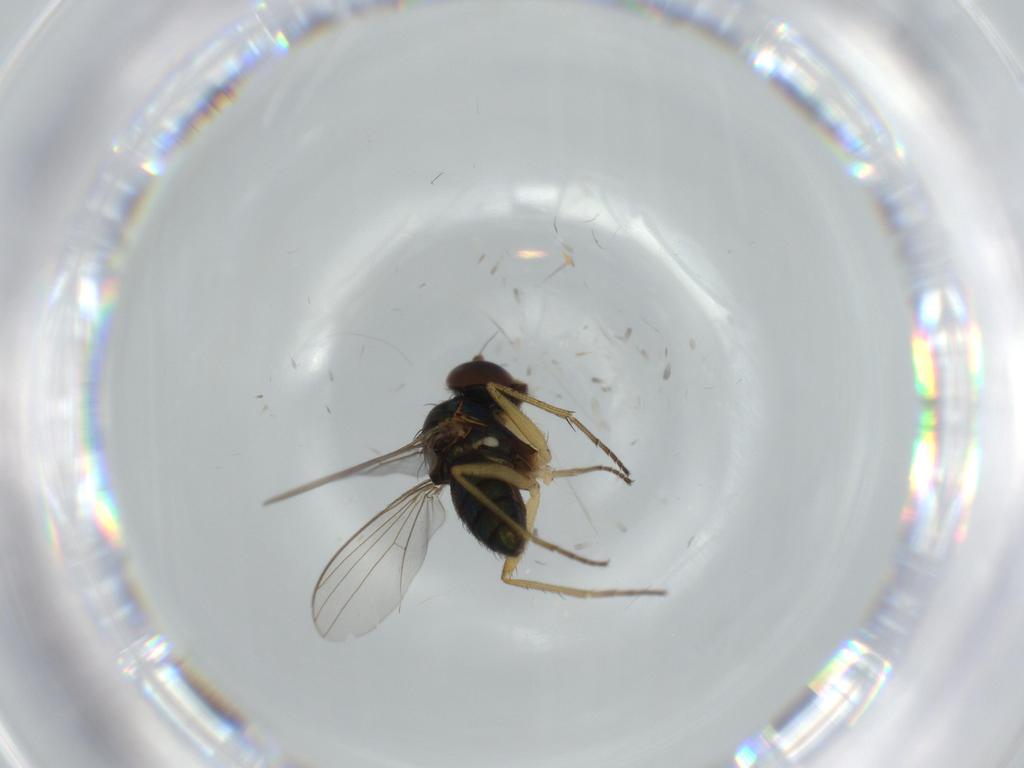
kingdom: Animalia
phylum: Arthropoda
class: Insecta
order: Diptera
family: Dolichopodidae
